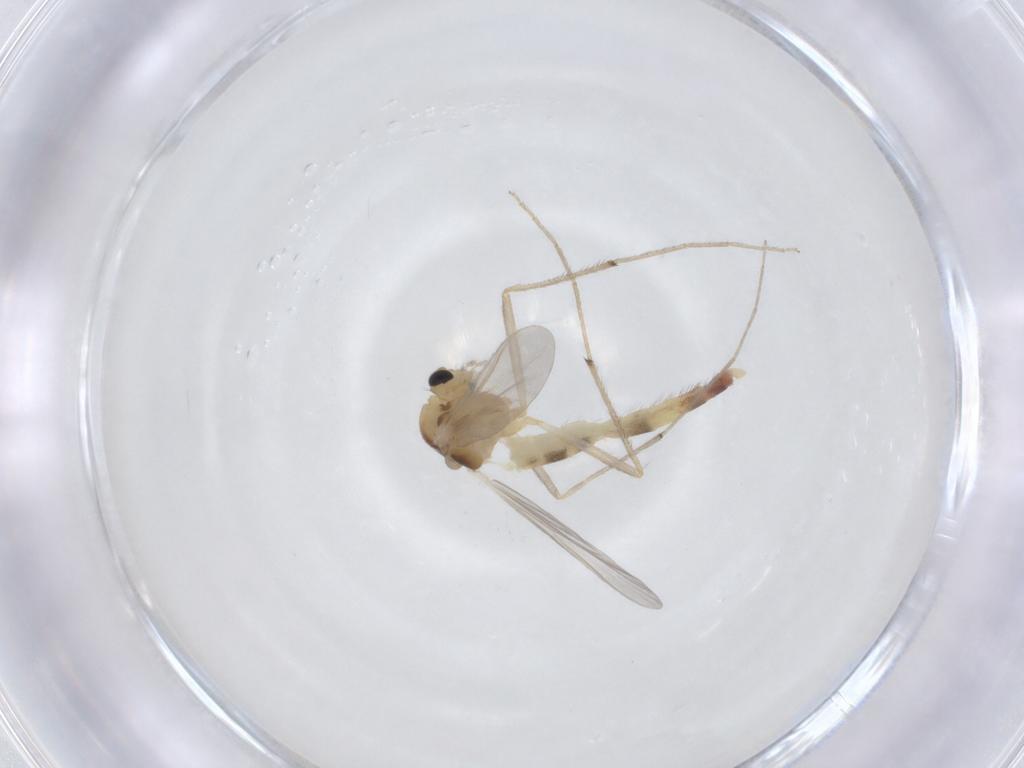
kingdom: Animalia
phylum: Arthropoda
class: Insecta
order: Diptera
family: Chironomidae
